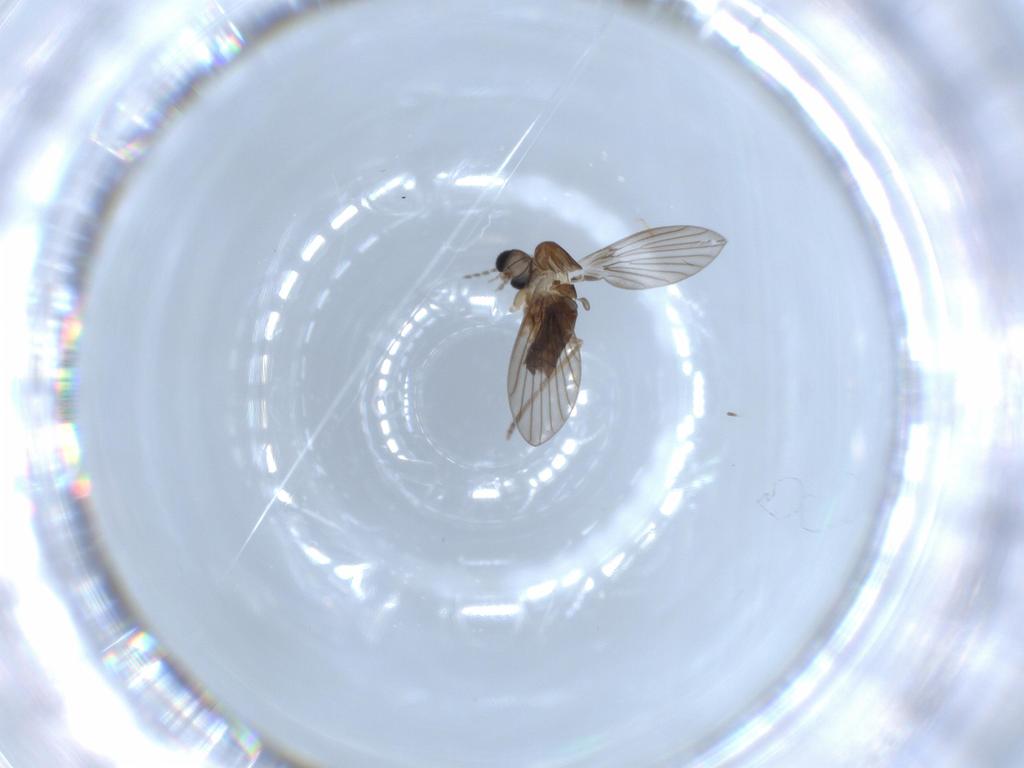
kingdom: Animalia
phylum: Arthropoda
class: Insecta
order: Diptera
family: Psychodidae
